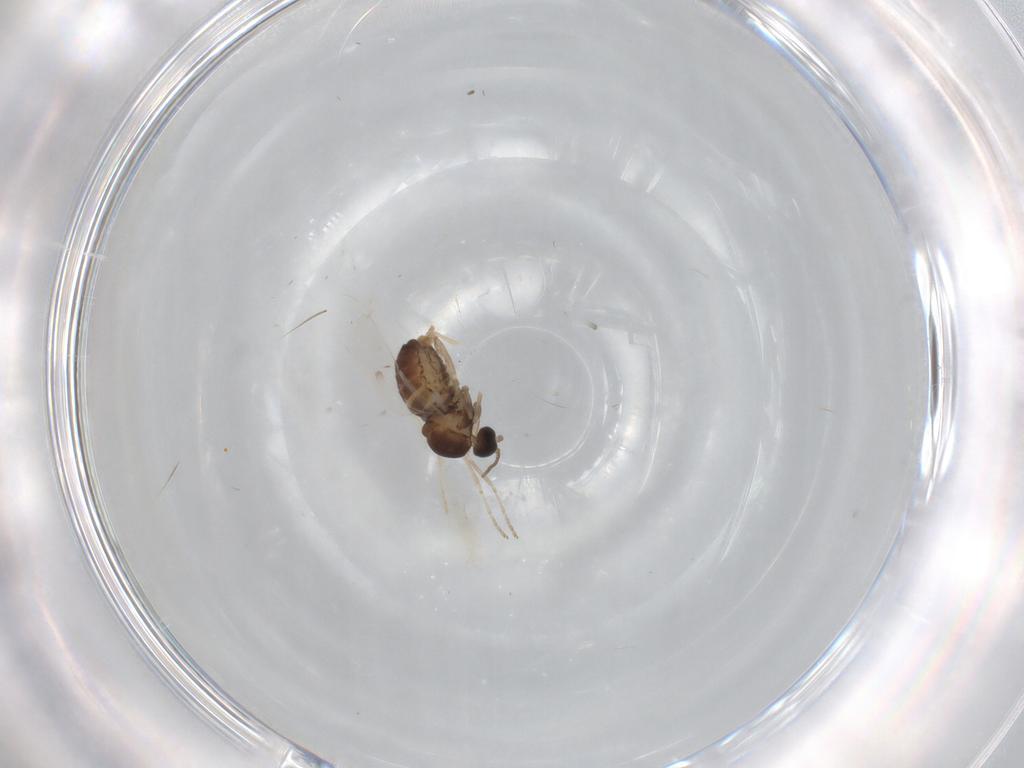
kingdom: Animalia
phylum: Arthropoda
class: Insecta
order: Diptera
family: Cecidomyiidae
